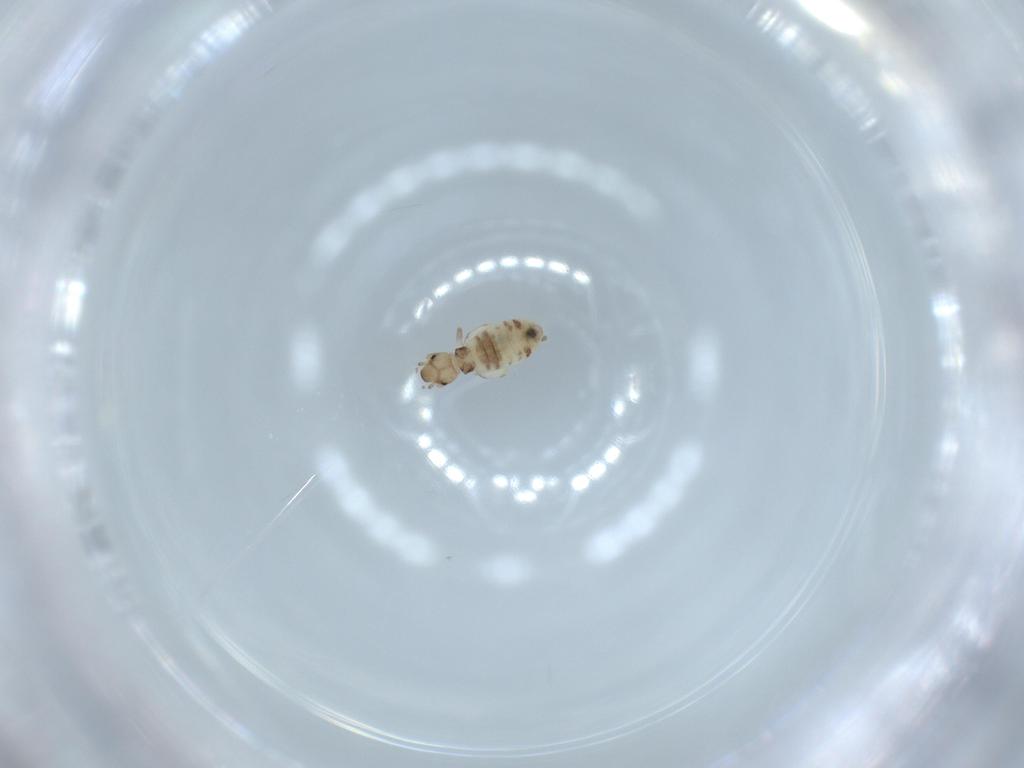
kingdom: Animalia
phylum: Arthropoda
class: Insecta
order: Psocodea
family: Liposcelididae
